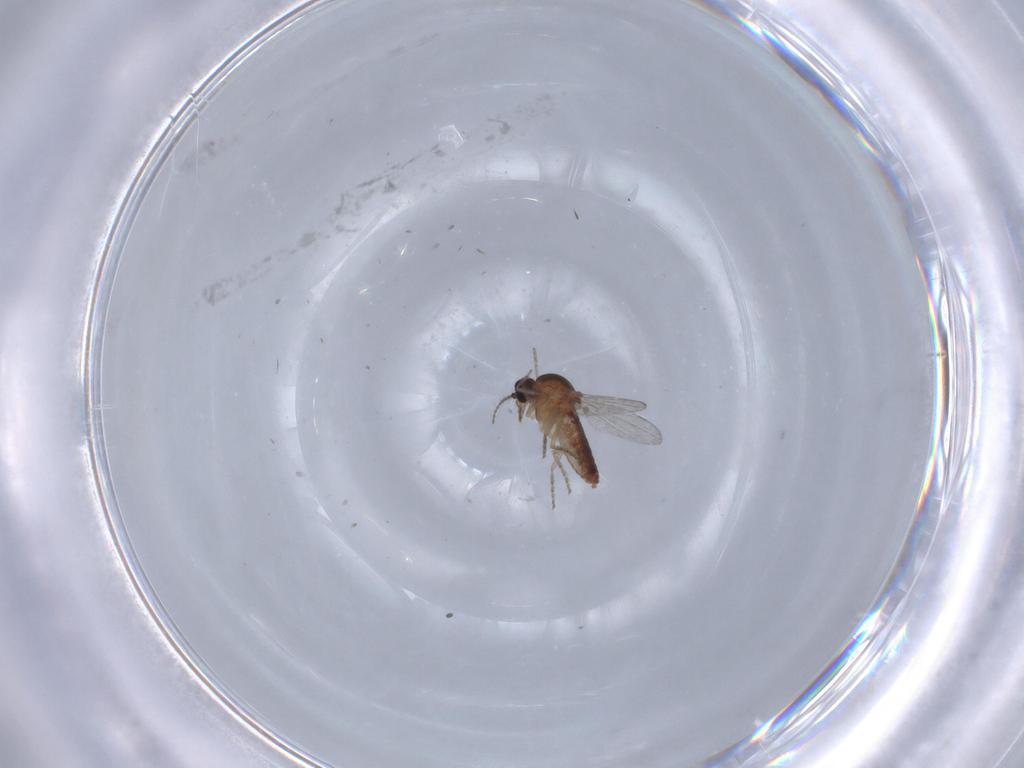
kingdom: Animalia
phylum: Arthropoda
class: Insecta
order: Diptera
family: Ceratopogonidae
